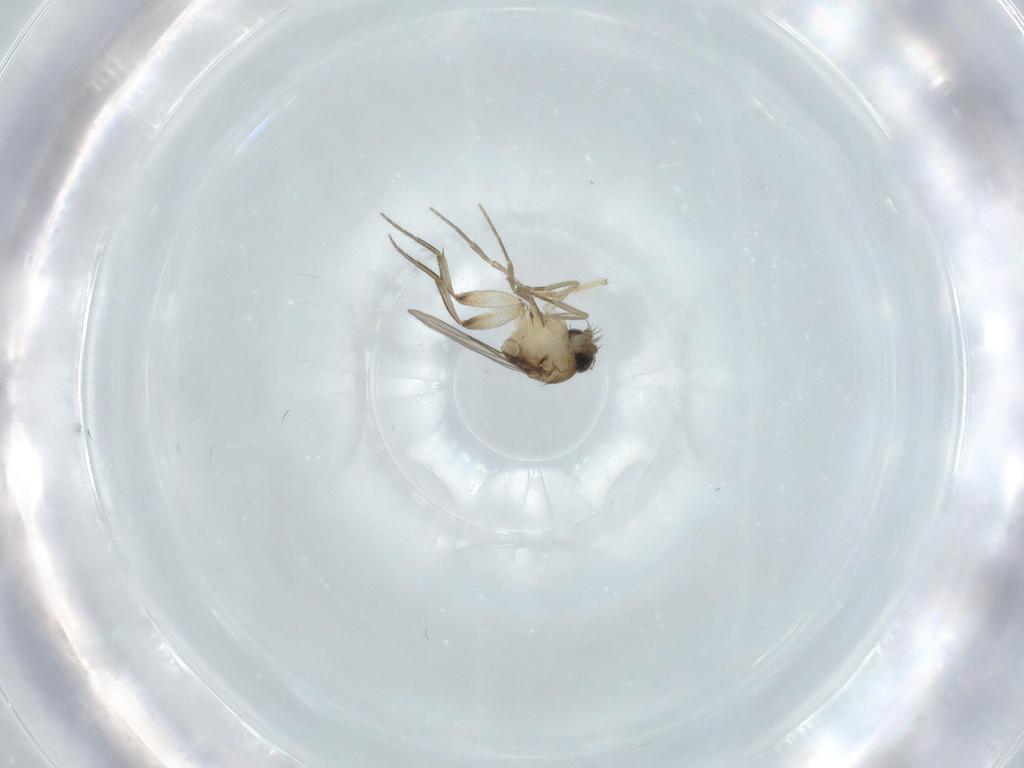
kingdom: Animalia
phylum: Arthropoda
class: Insecta
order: Diptera
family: Phoridae
